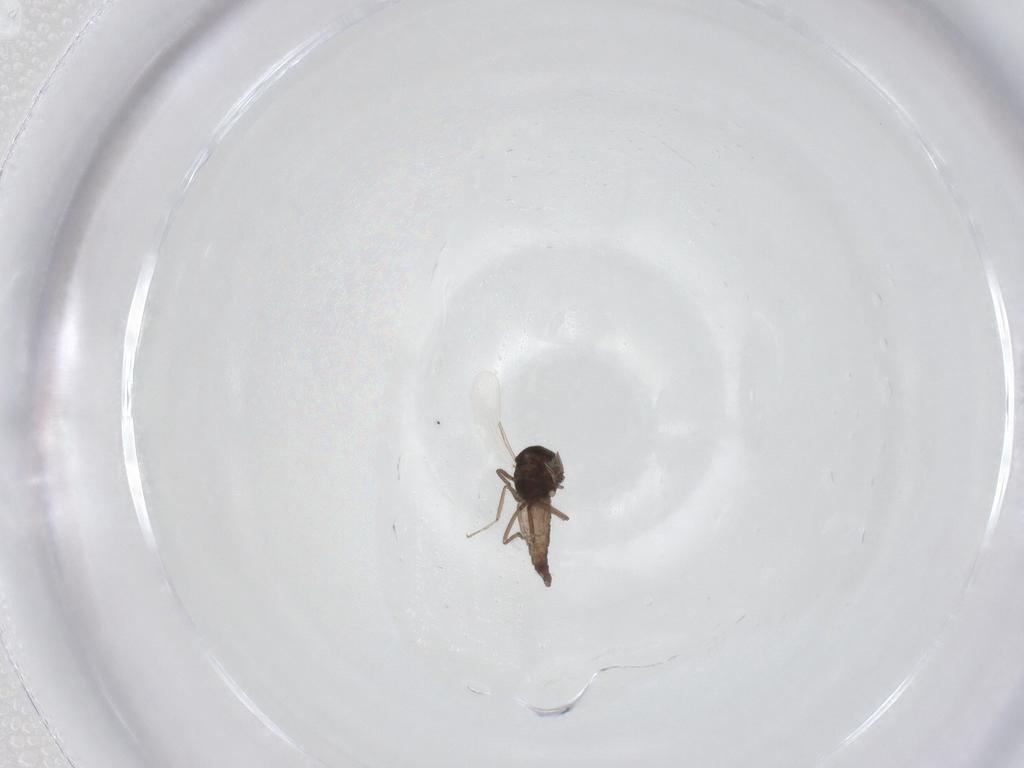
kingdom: Animalia
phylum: Arthropoda
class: Insecta
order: Diptera
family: Ceratopogonidae
